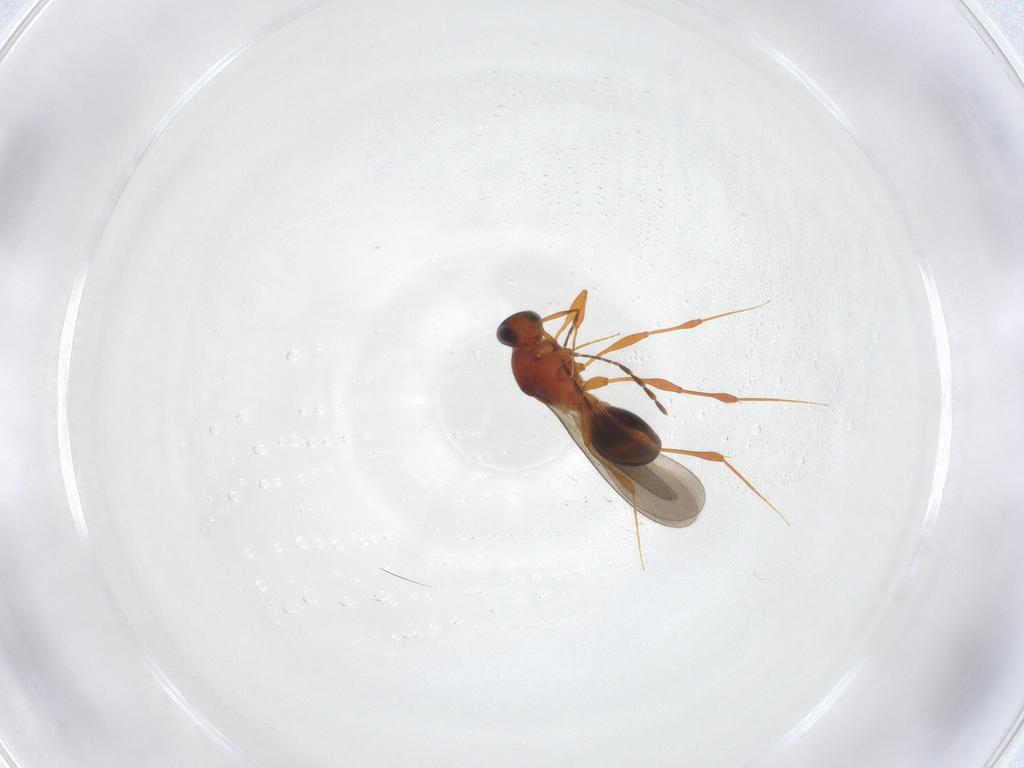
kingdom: Animalia
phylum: Arthropoda
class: Insecta
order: Hymenoptera
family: Platygastridae
